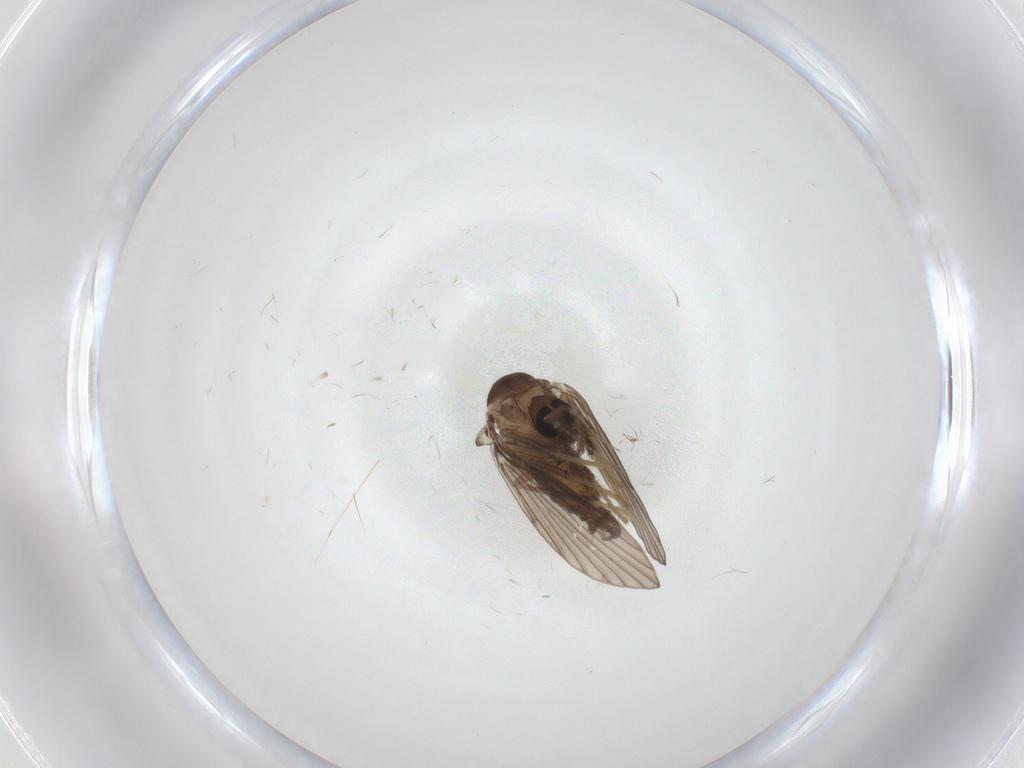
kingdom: Animalia
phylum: Arthropoda
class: Insecta
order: Diptera
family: Psychodidae
